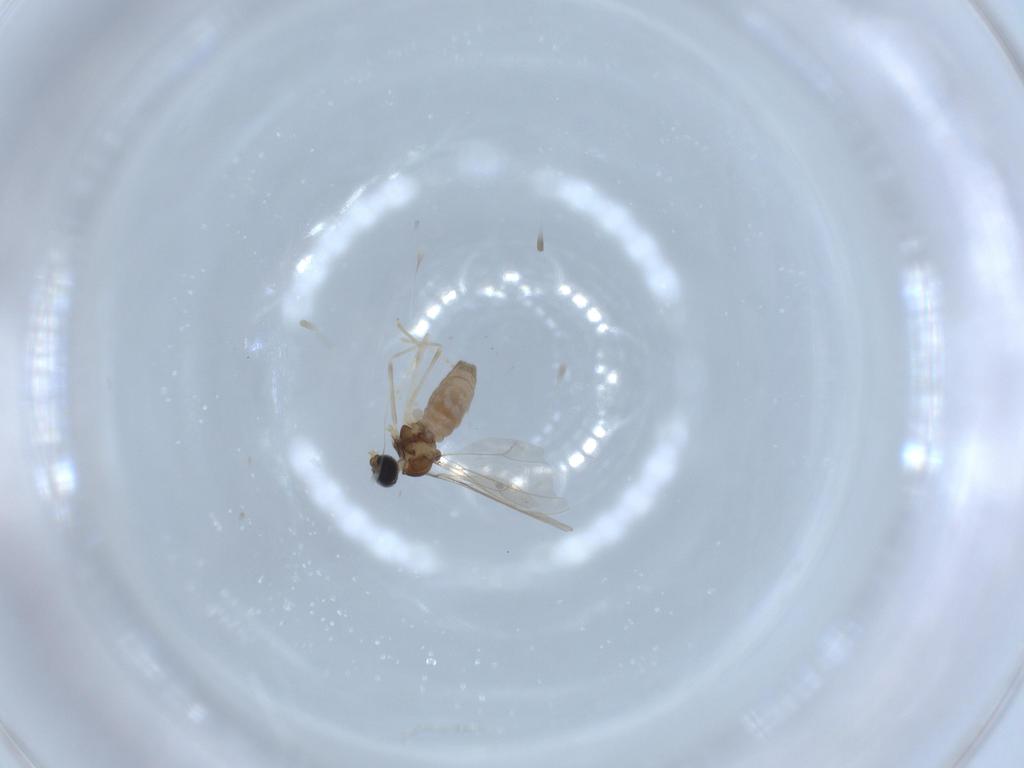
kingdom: Animalia
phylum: Arthropoda
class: Insecta
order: Diptera
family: Cecidomyiidae
